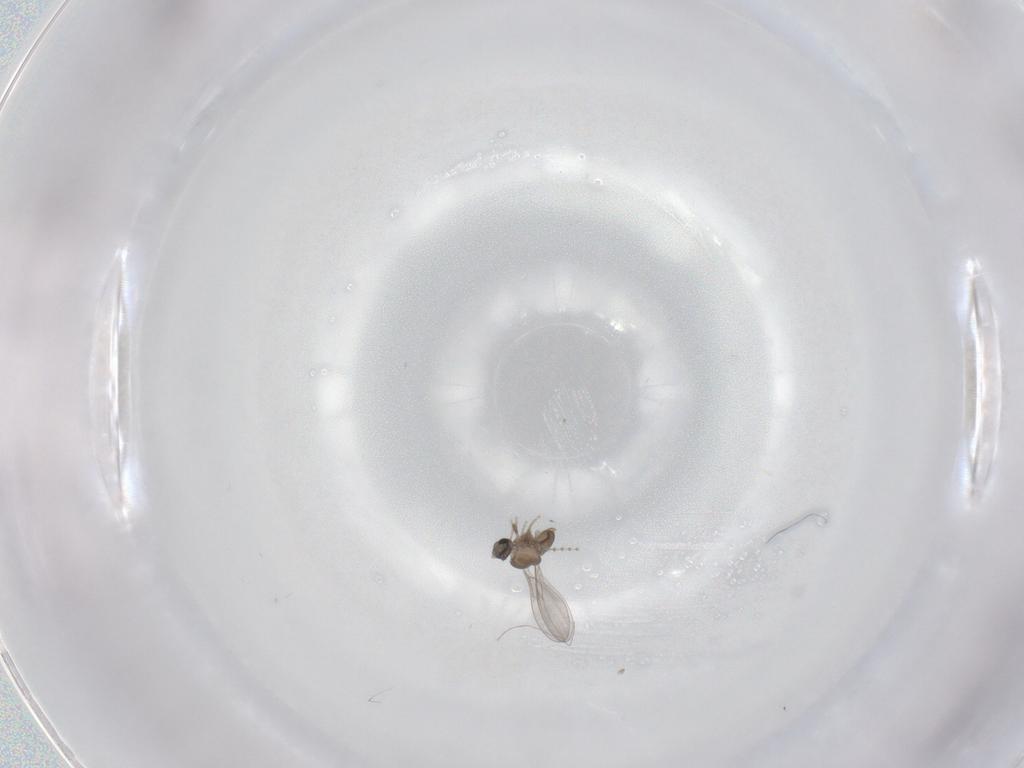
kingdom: Animalia
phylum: Arthropoda
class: Insecta
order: Diptera
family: Cecidomyiidae
